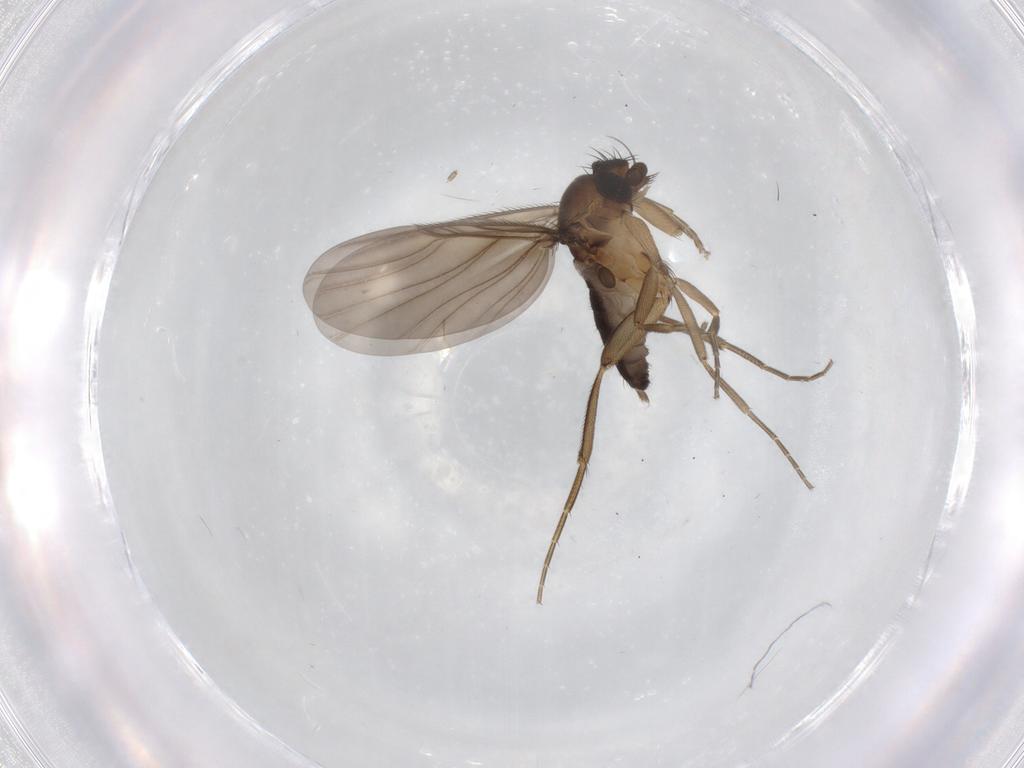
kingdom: Animalia
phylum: Arthropoda
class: Insecta
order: Diptera
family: Phoridae
